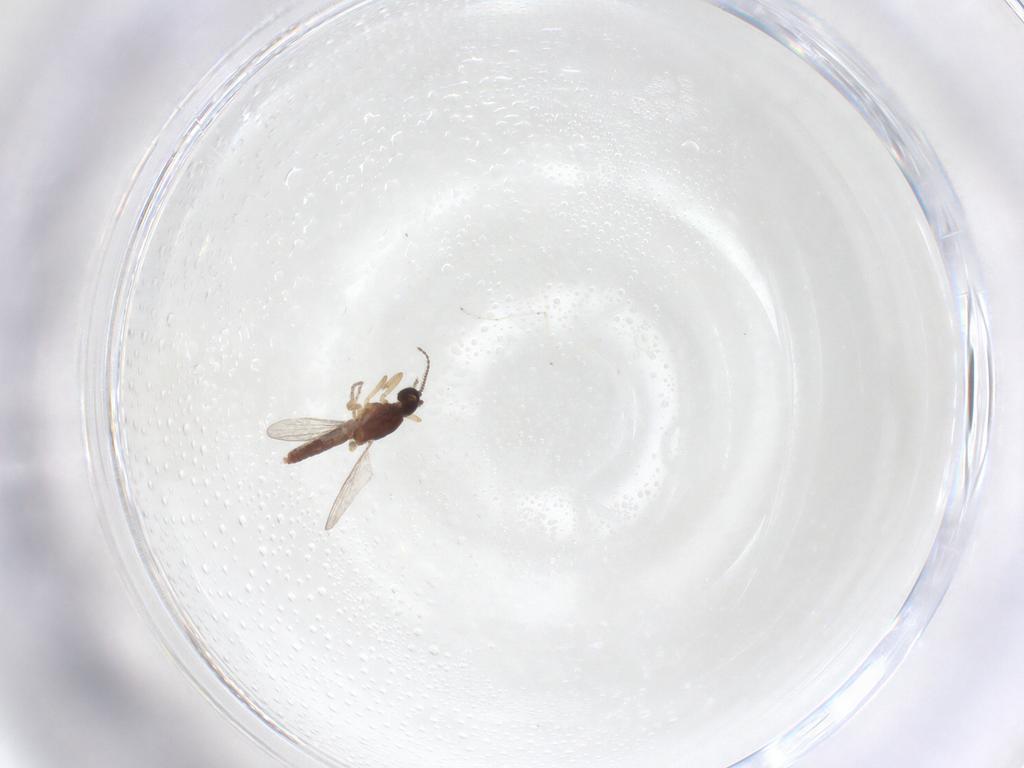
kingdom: Animalia
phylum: Arthropoda
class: Insecta
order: Diptera
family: Ceratopogonidae
